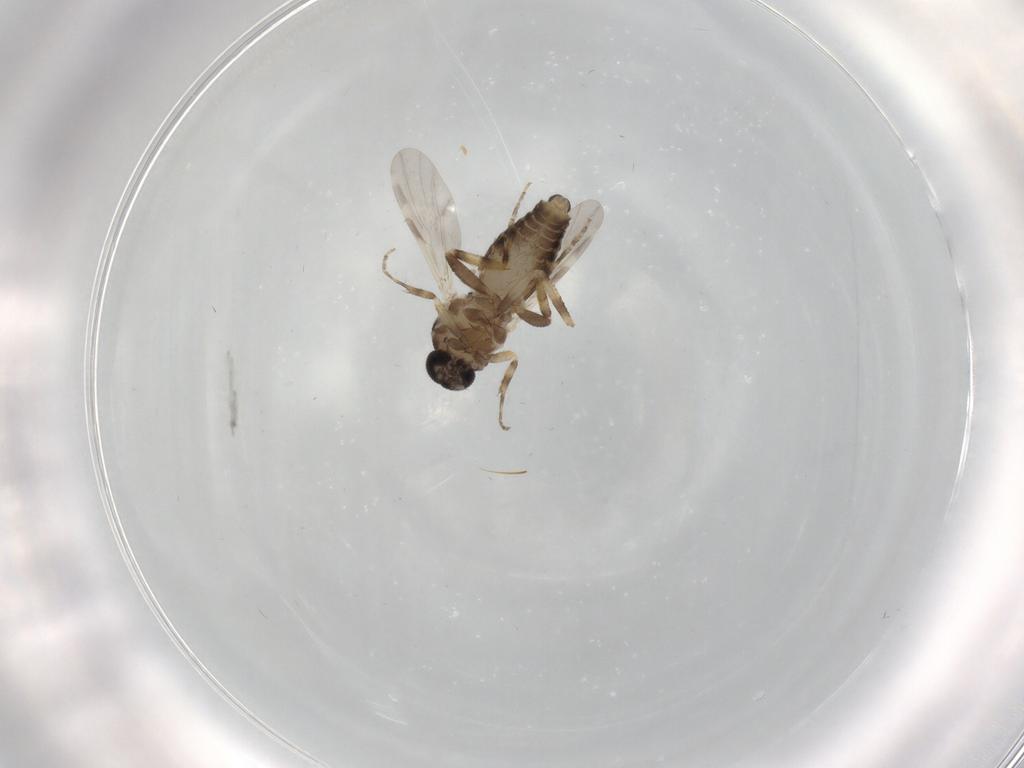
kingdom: Animalia
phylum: Arthropoda
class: Insecta
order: Diptera
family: Ceratopogonidae
